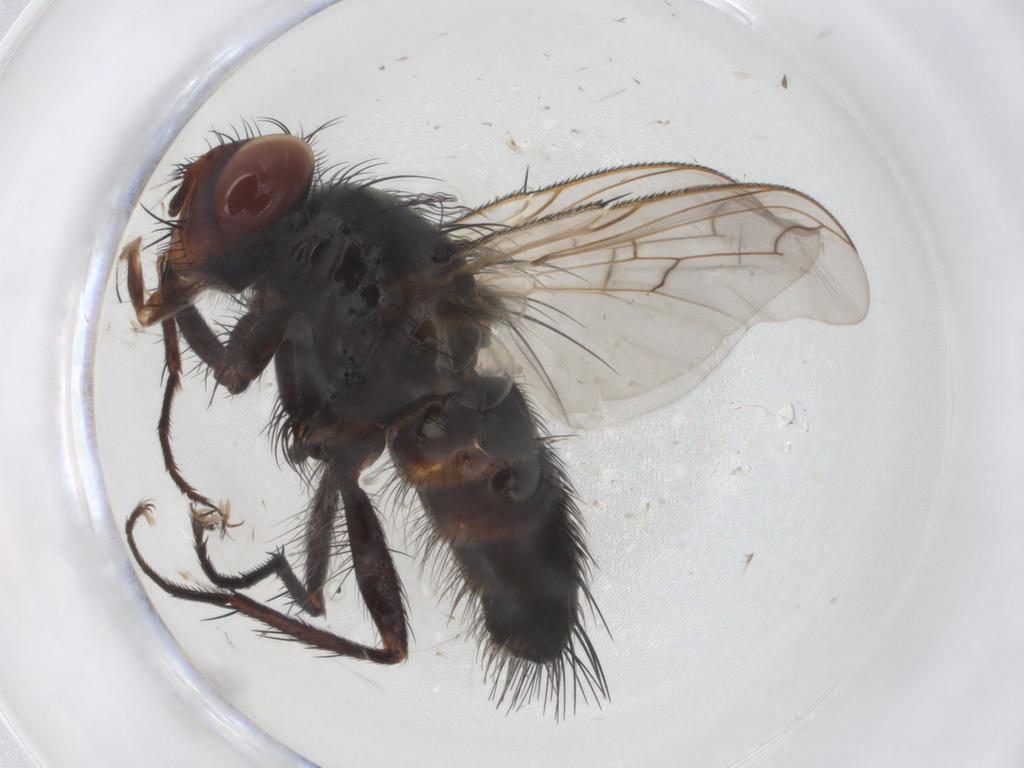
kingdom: Animalia
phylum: Arthropoda
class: Insecta
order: Diptera
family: Tachinidae
